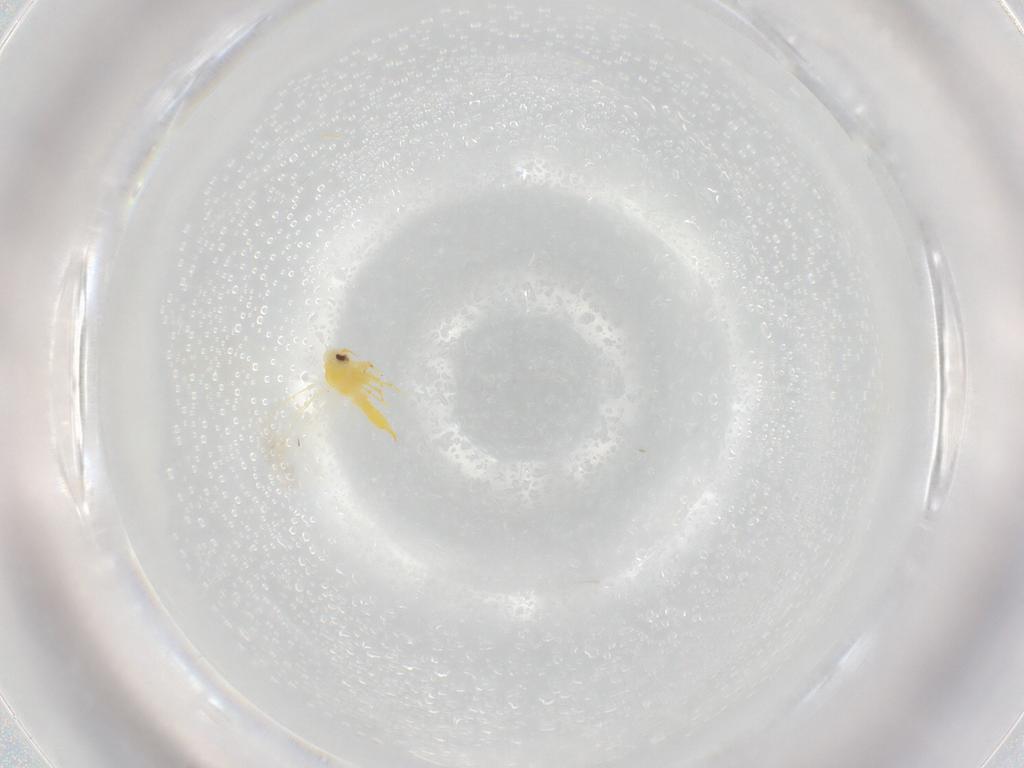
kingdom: Animalia
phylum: Arthropoda
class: Insecta
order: Hemiptera
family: Aleyrodidae
